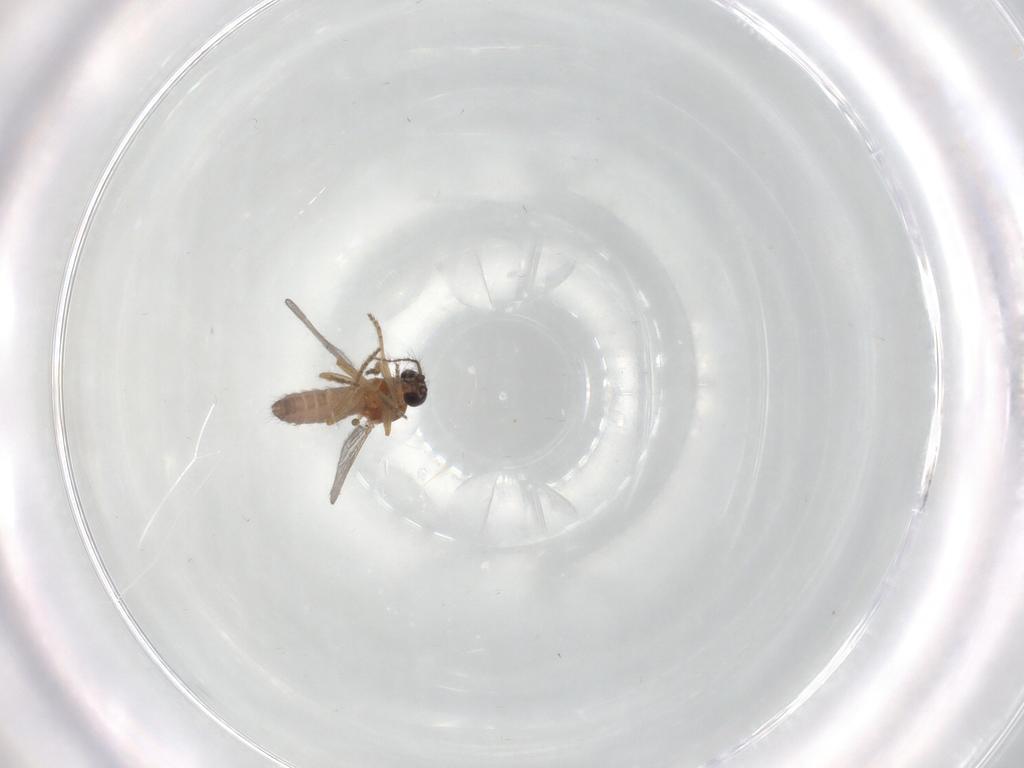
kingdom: Animalia
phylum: Arthropoda
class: Insecta
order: Diptera
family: Ceratopogonidae
